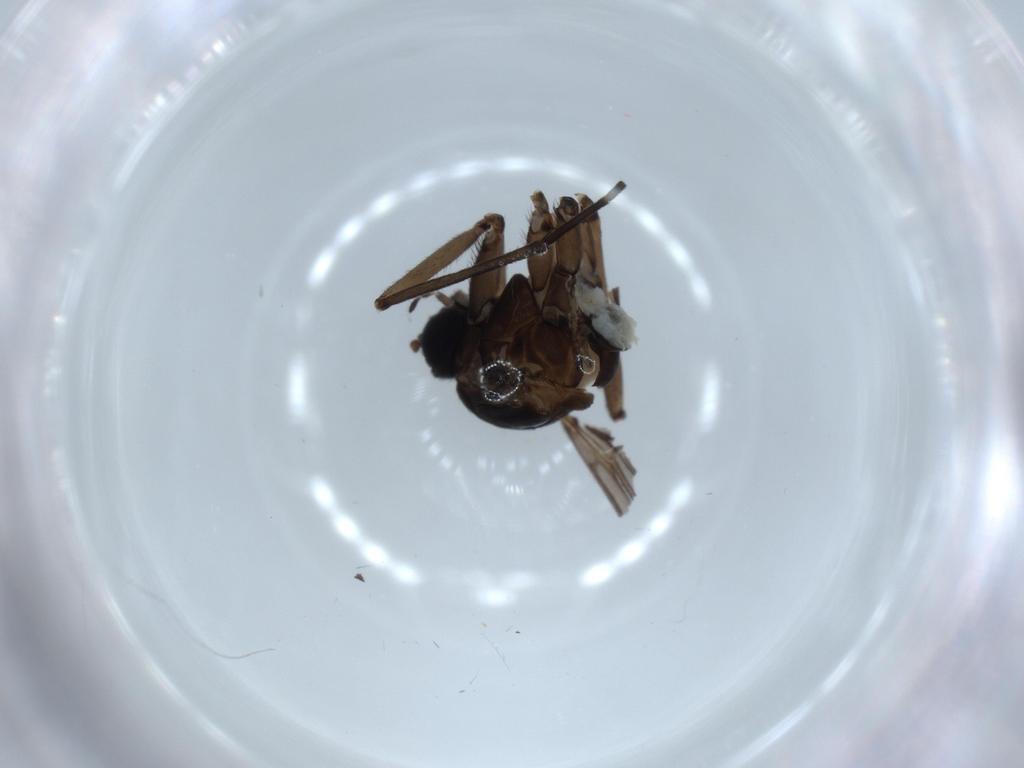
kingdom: Animalia
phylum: Arthropoda
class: Insecta
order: Diptera
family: Sciaridae
